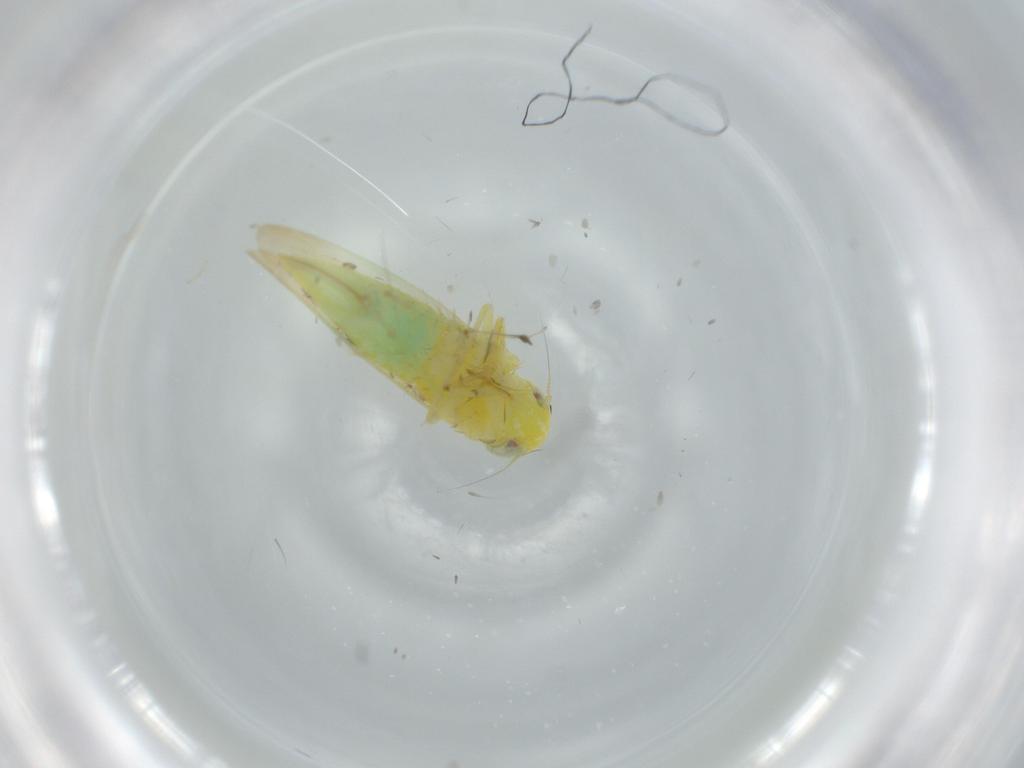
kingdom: Animalia
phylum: Arthropoda
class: Insecta
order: Hemiptera
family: Cicadellidae
